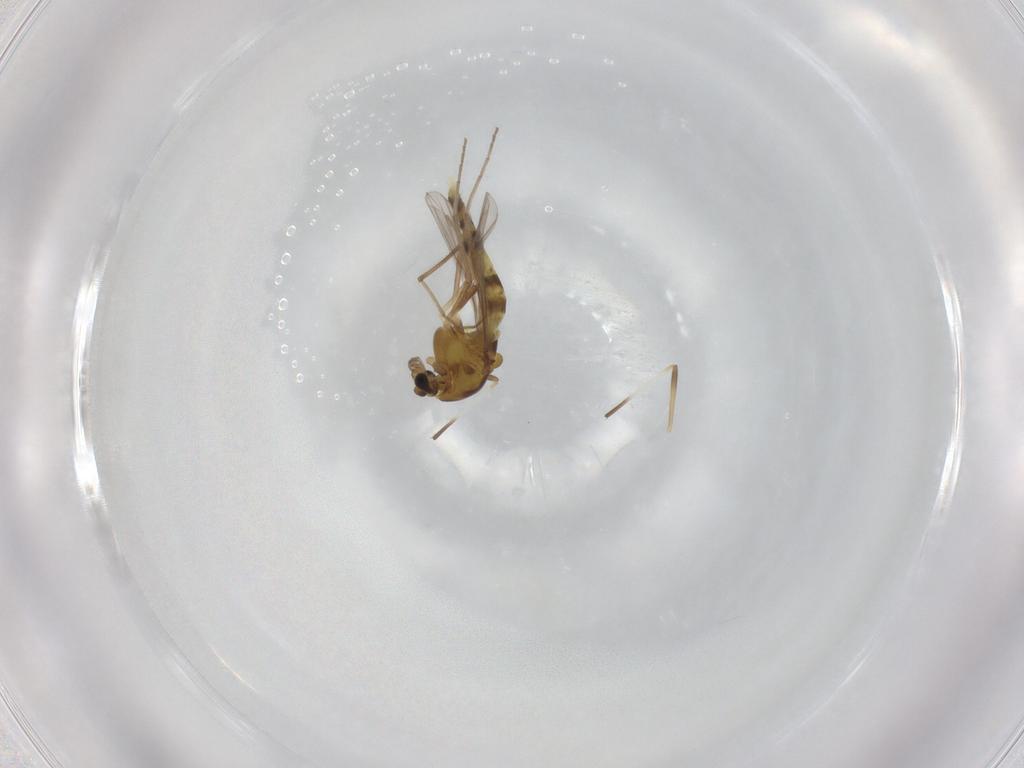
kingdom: Animalia
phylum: Arthropoda
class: Insecta
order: Diptera
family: Chironomidae
